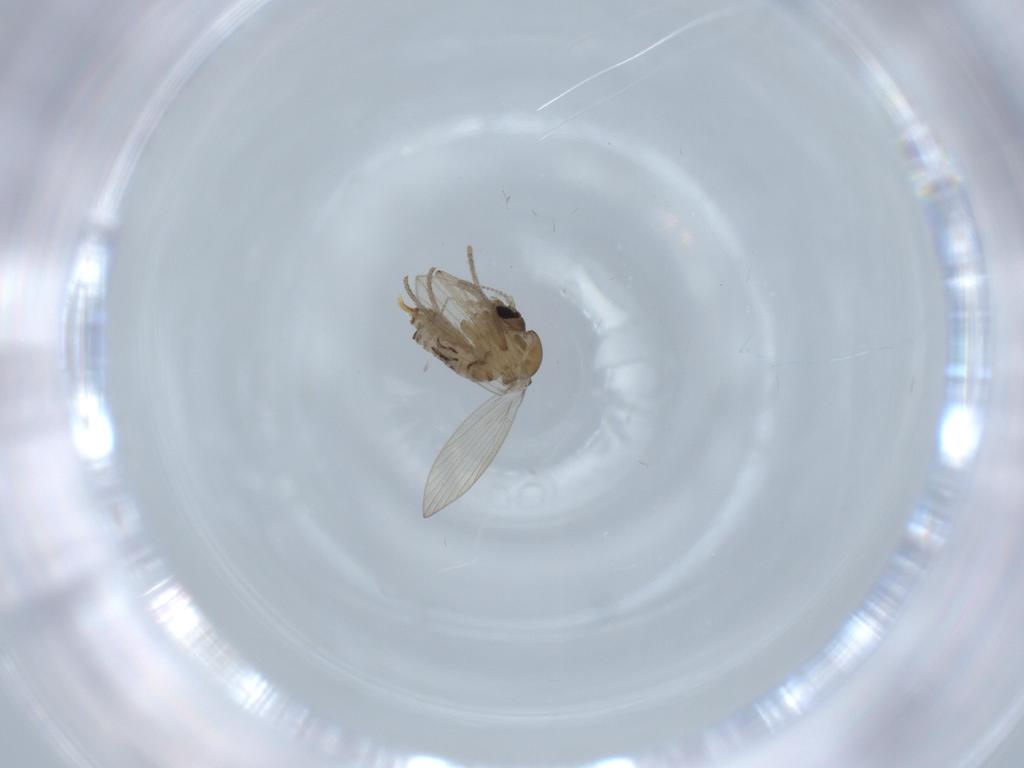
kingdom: Animalia
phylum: Arthropoda
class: Insecta
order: Diptera
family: Psychodidae
